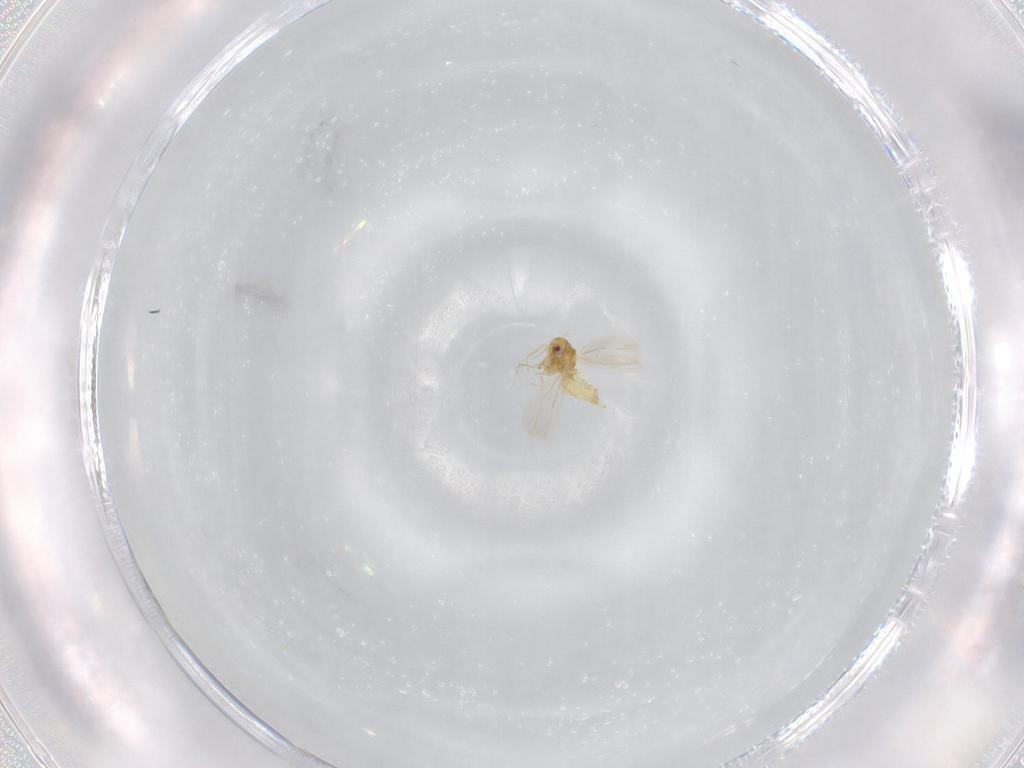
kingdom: Animalia
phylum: Arthropoda
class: Insecta
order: Hemiptera
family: Aleyrodidae
